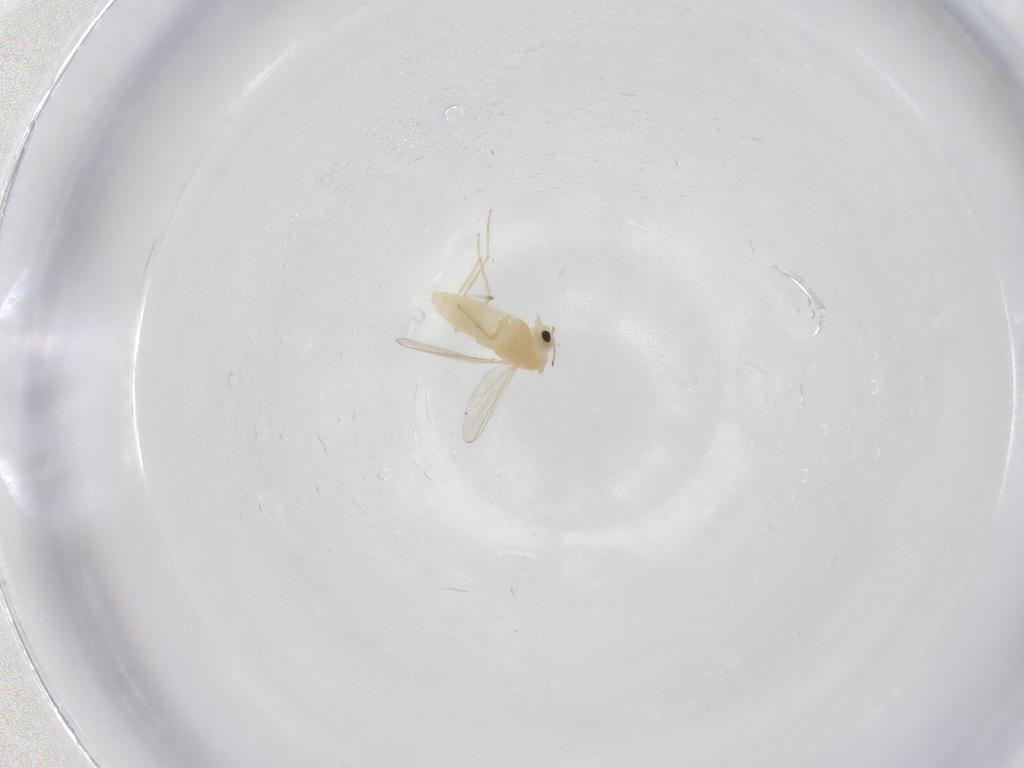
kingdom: Animalia
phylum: Arthropoda
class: Insecta
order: Diptera
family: Chironomidae
